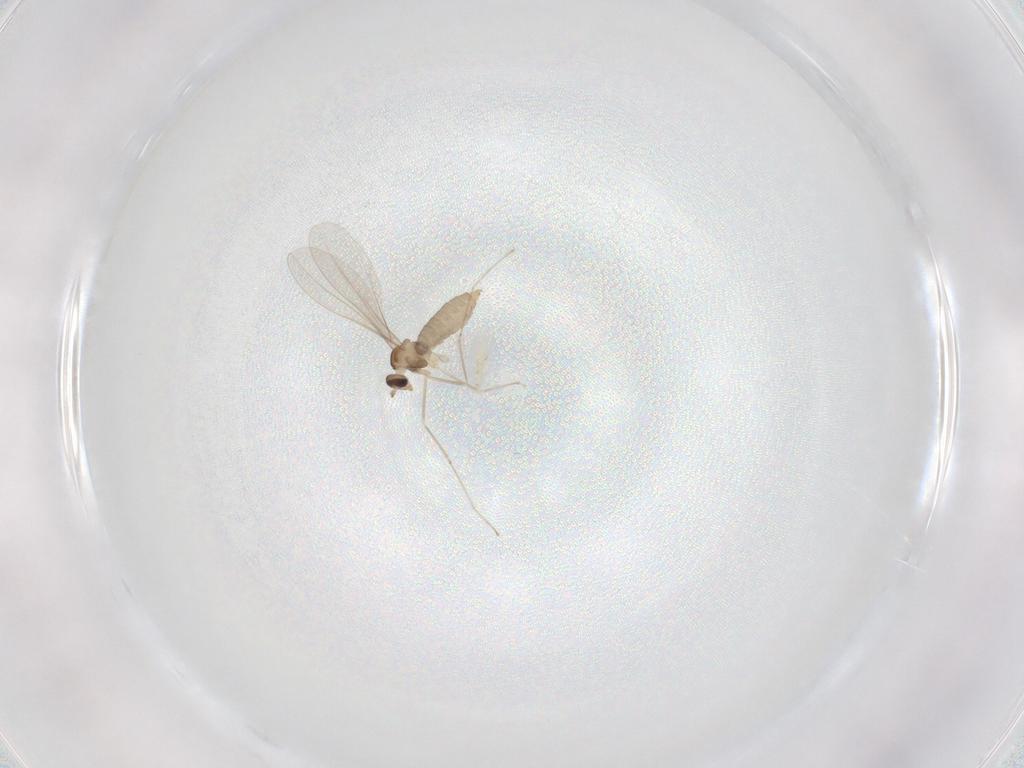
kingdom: Animalia
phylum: Arthropoda
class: Insecta
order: Diptera
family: Cecidomyiidae
